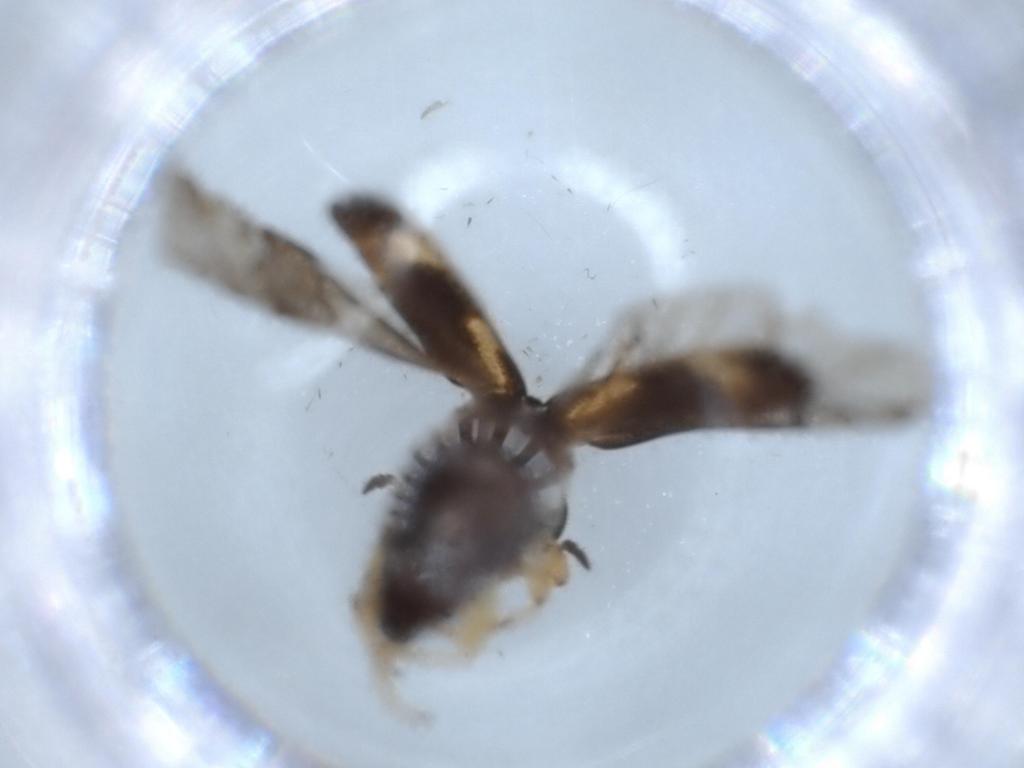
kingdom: Animalia
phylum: Arthropoda
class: Insecta
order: Coleoptera
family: Cleridae
